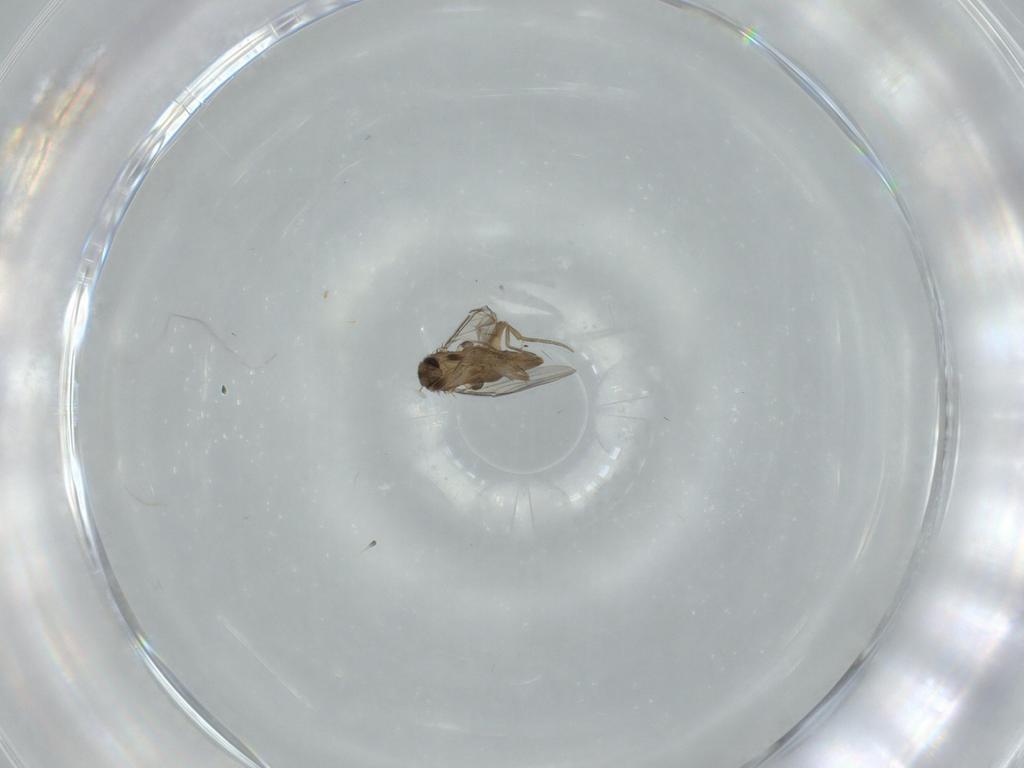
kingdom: Animalia
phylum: Arthropoda
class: Insecta
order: Diptera
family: Phoridae
